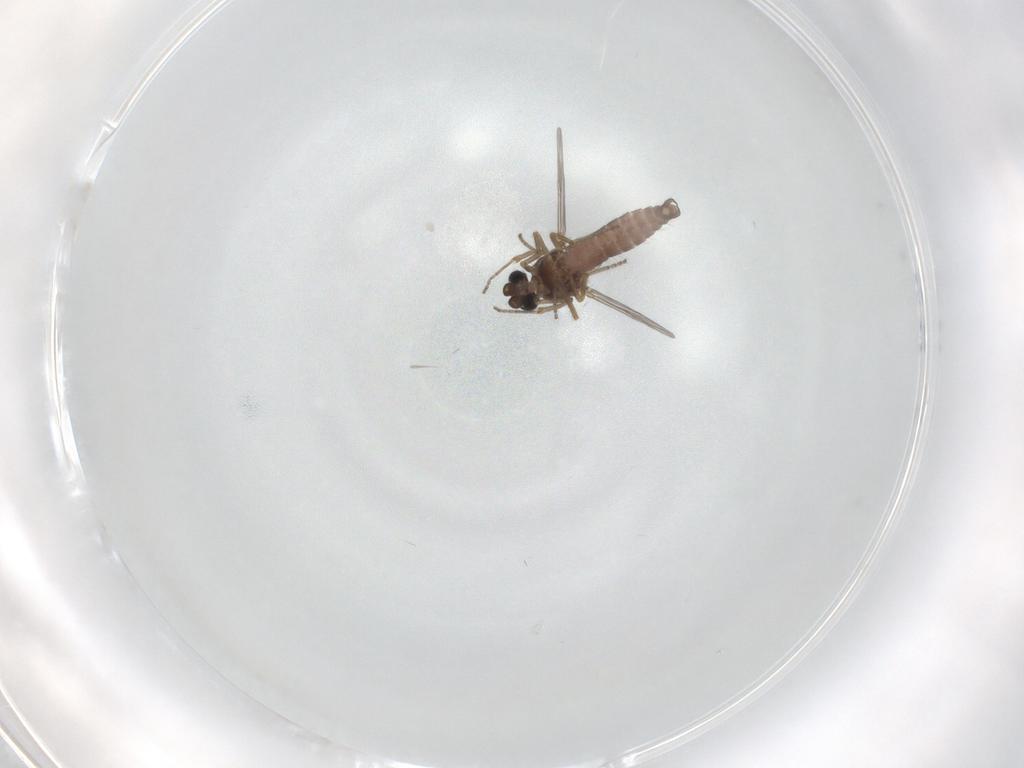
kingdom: Animalia
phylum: Arthropoda
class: Insecta
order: Diptera
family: Ceratopogonidae
